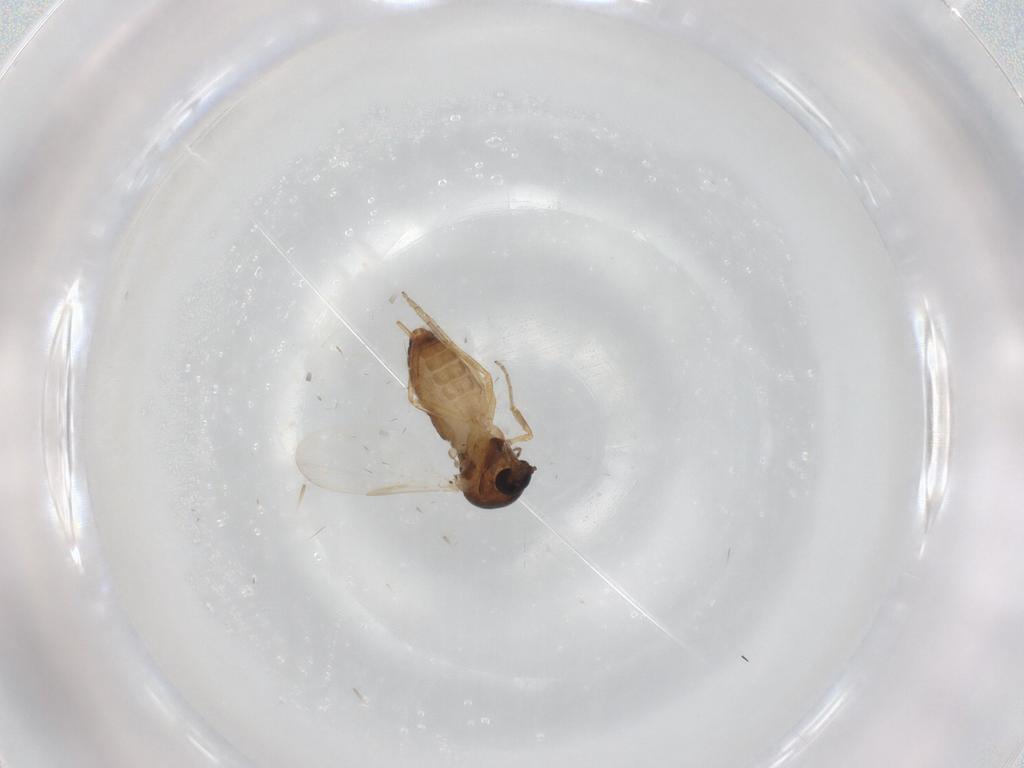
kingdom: Animalia
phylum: Arthropoda
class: Insecta
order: Diptera
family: Ceratopogonidae
